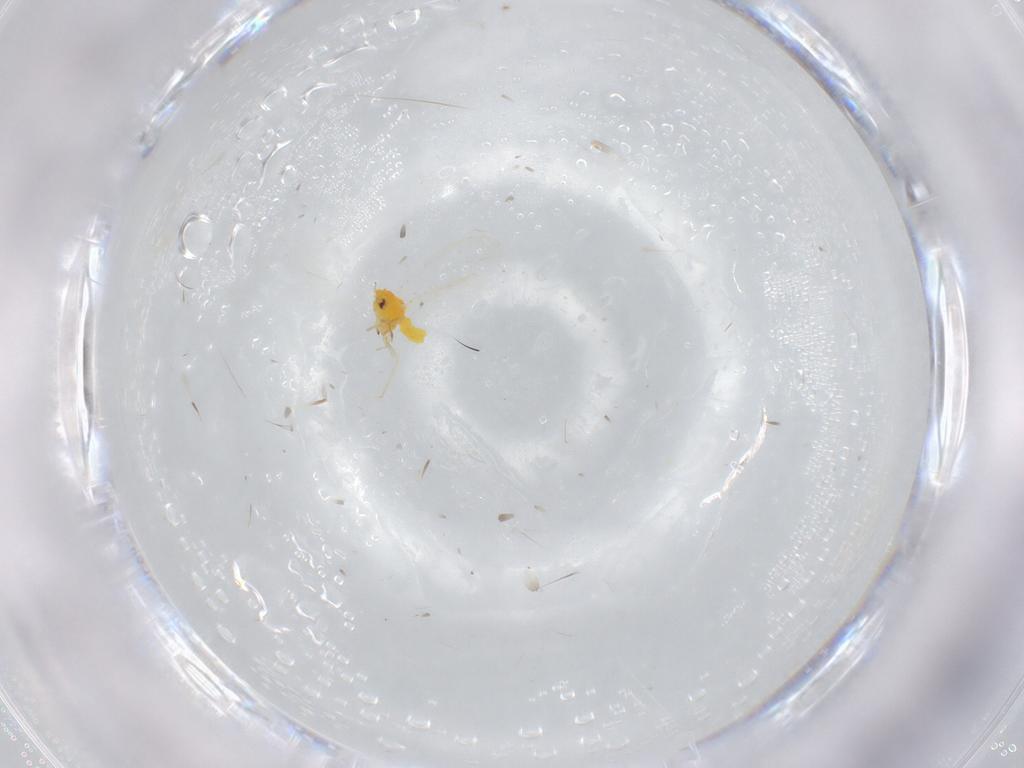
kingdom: Animalia
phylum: Arthropoda
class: Insecta
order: Hemiptera
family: Aleyrodidae
